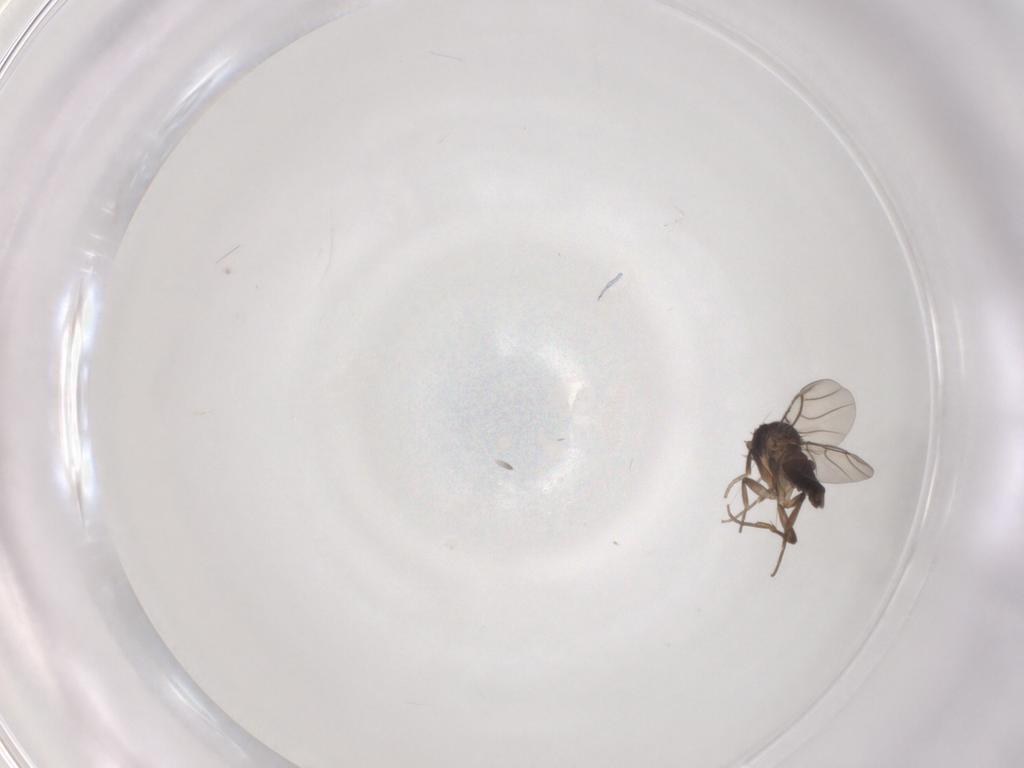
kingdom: Animalia
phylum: Arthropoda
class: Insecta
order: Diptera
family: Phoridae
